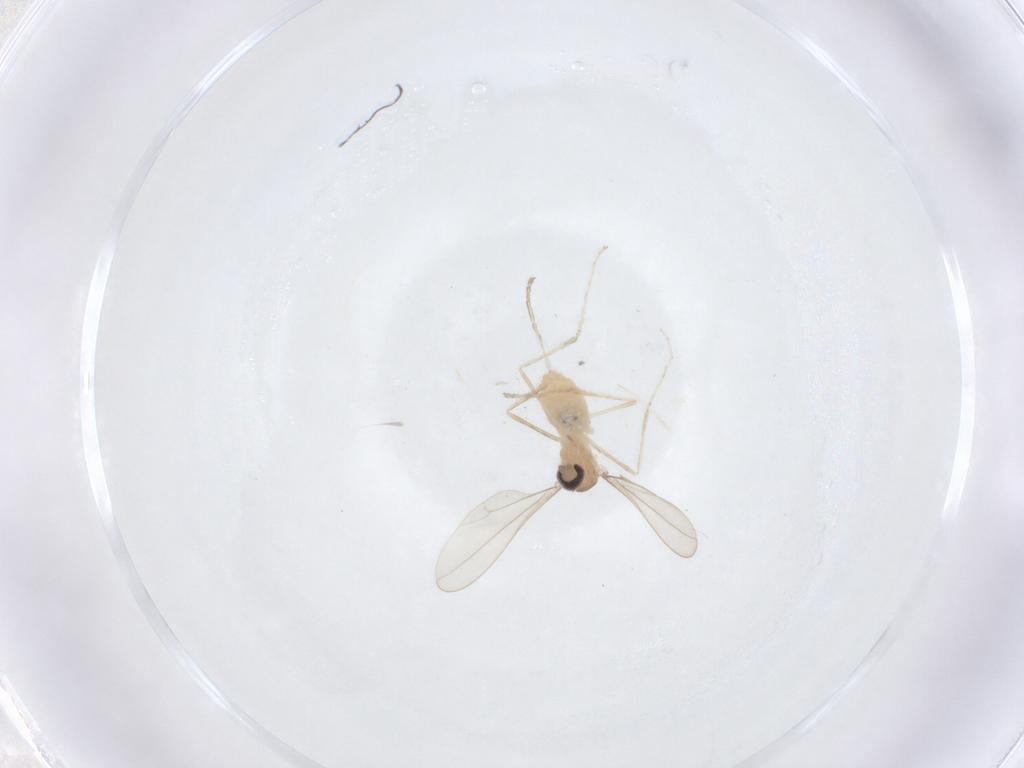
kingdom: Animalia
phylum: Arthropoda
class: Insecta
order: Diptera
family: Cecidomyiidae
